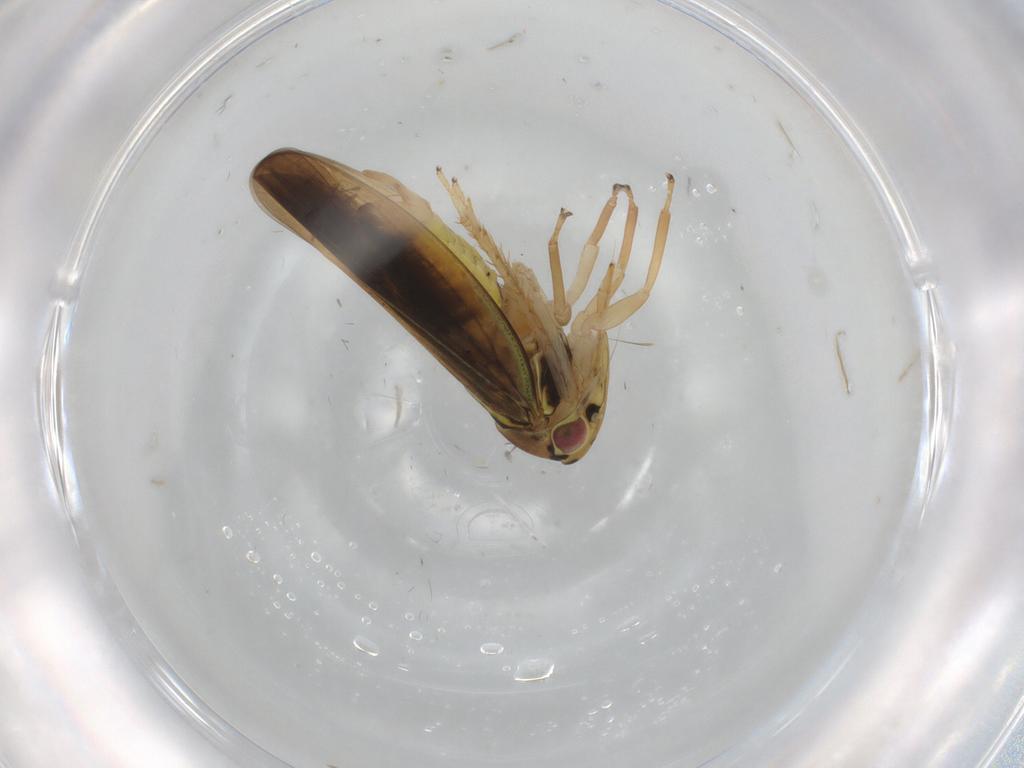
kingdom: Animalia
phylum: Arthropoda
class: Insecta
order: Hemiptera
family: Cicadellidae
